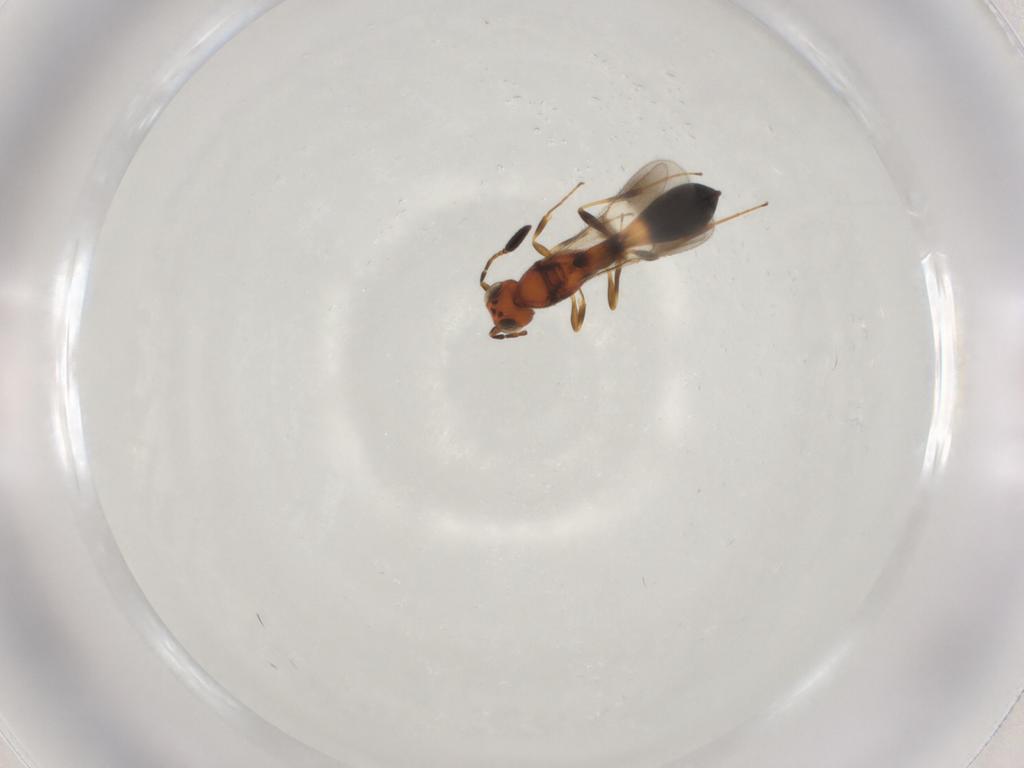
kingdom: Animalia
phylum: Arthropoda
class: Insecta
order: Hymenoptera
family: Scelionidae
